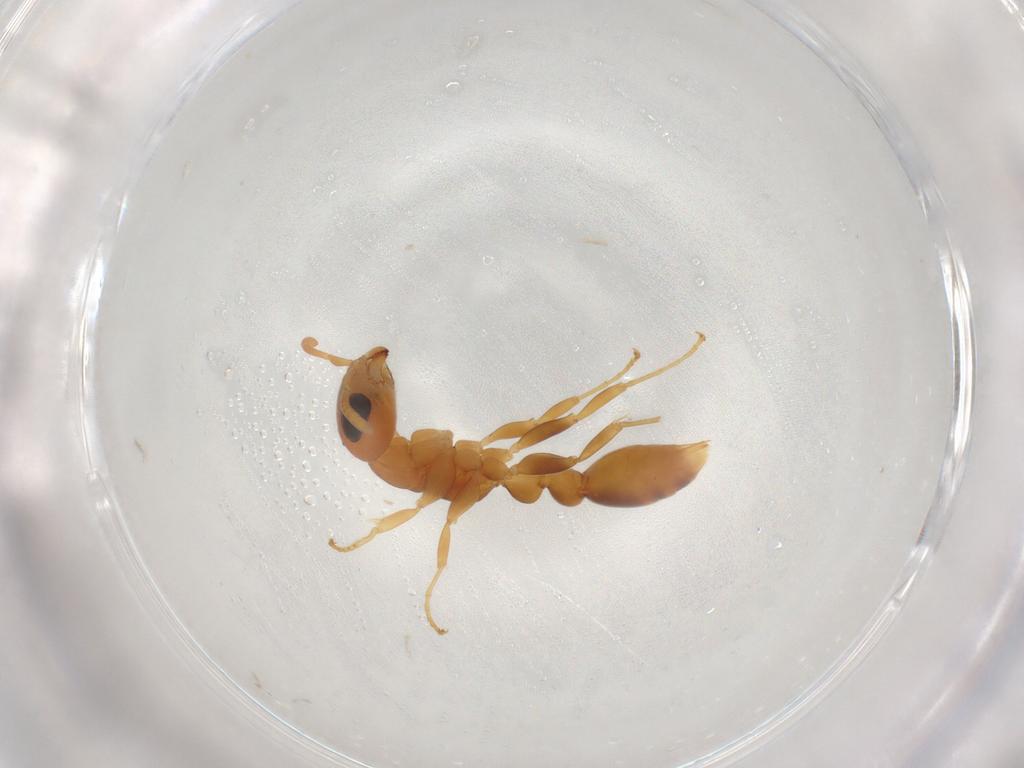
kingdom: Animalia
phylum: Arthropoda
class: Insecta
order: Hymenoptera
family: Formicidae
